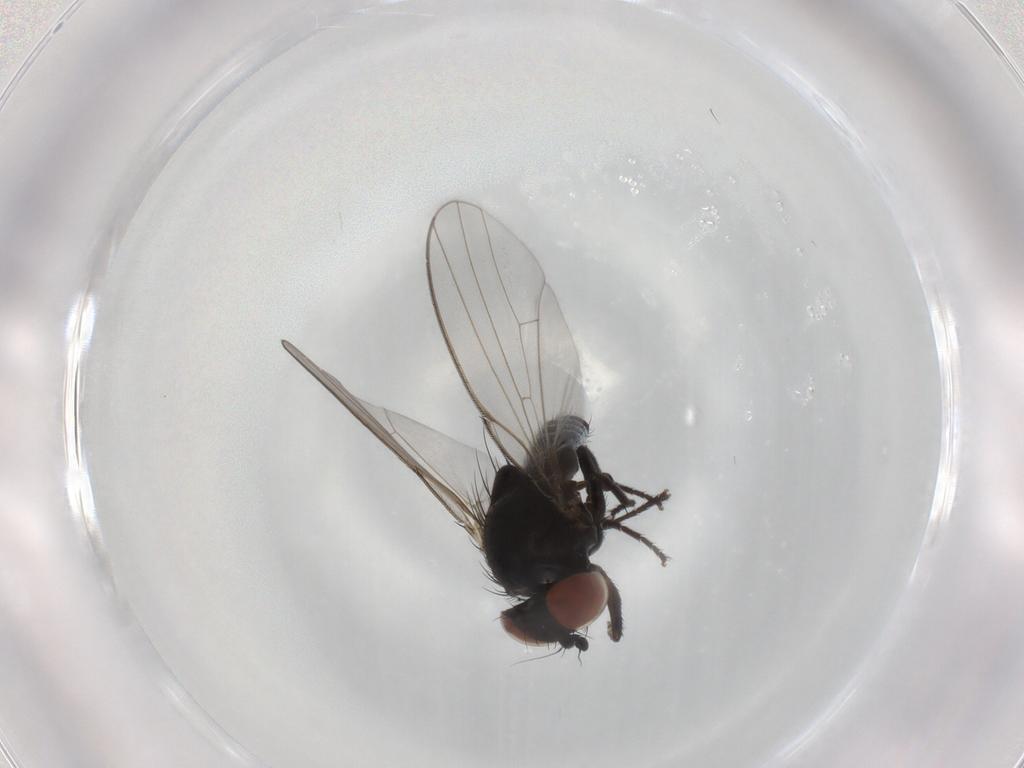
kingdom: Animalia
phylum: Arthropoda
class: Insecta
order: Diptera
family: Milichiidae
